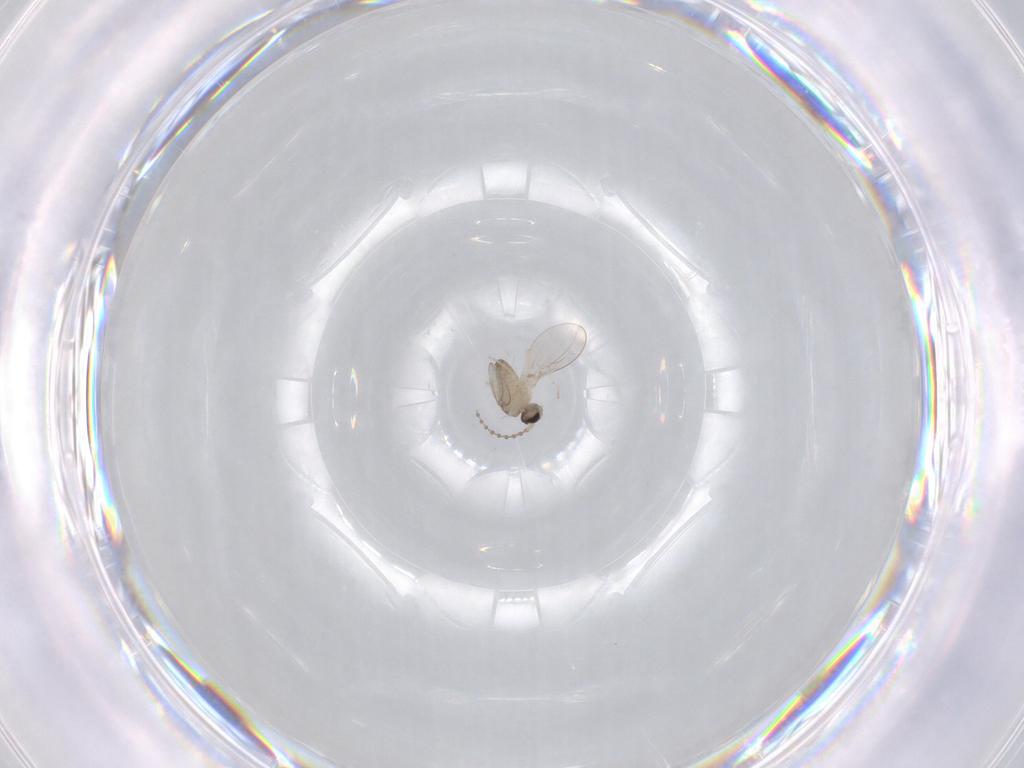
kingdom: Animalia
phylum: Arthropoda
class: Insecta
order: Diptera
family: Cecidomyiidae
